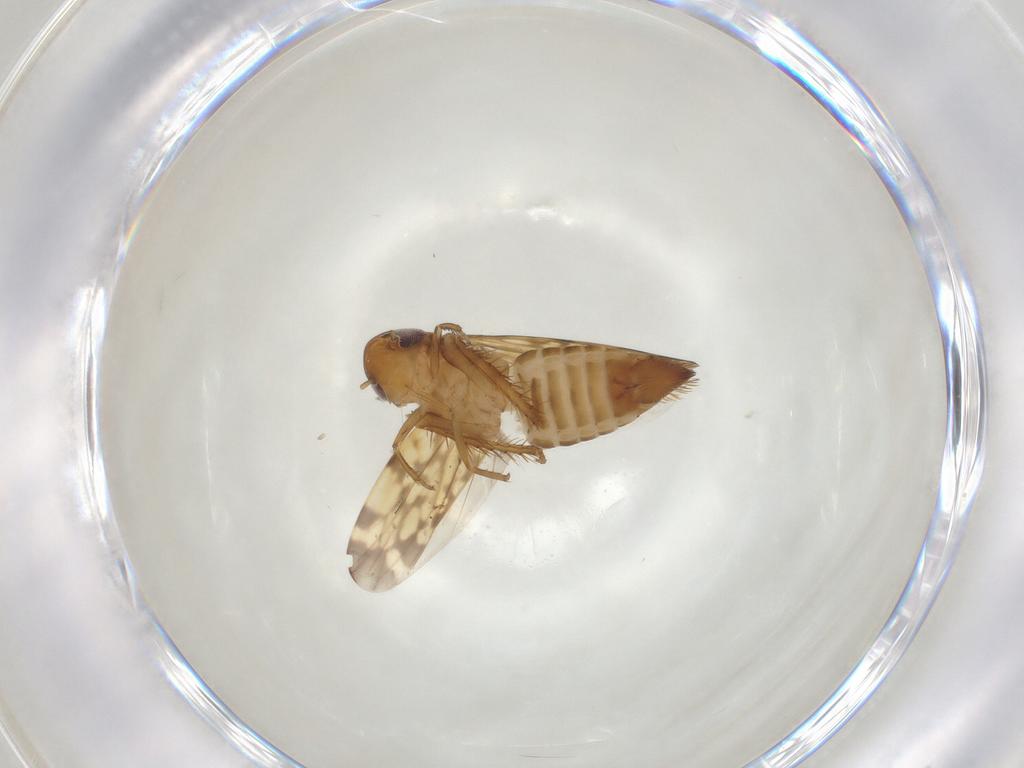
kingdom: Animalia
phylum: Arthropoda
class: Insecta
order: Hemiptera
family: Cicadellidae
